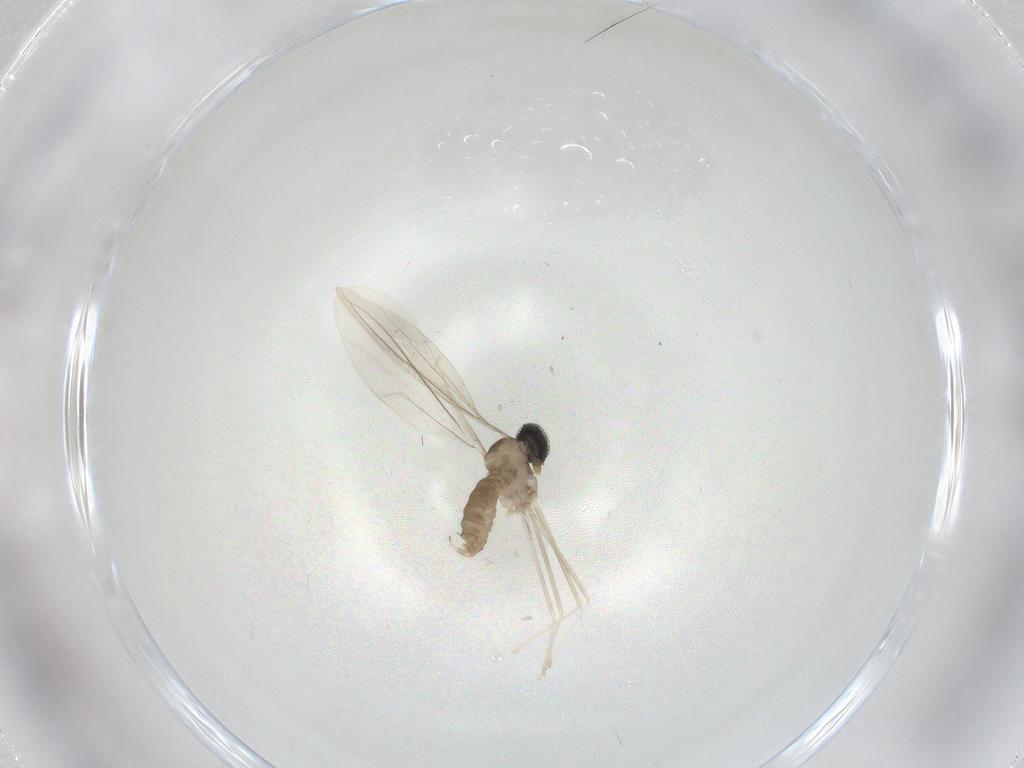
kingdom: Animalia
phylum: Arthropoda
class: Insecta
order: Diptera
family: Cecidomyiidae
